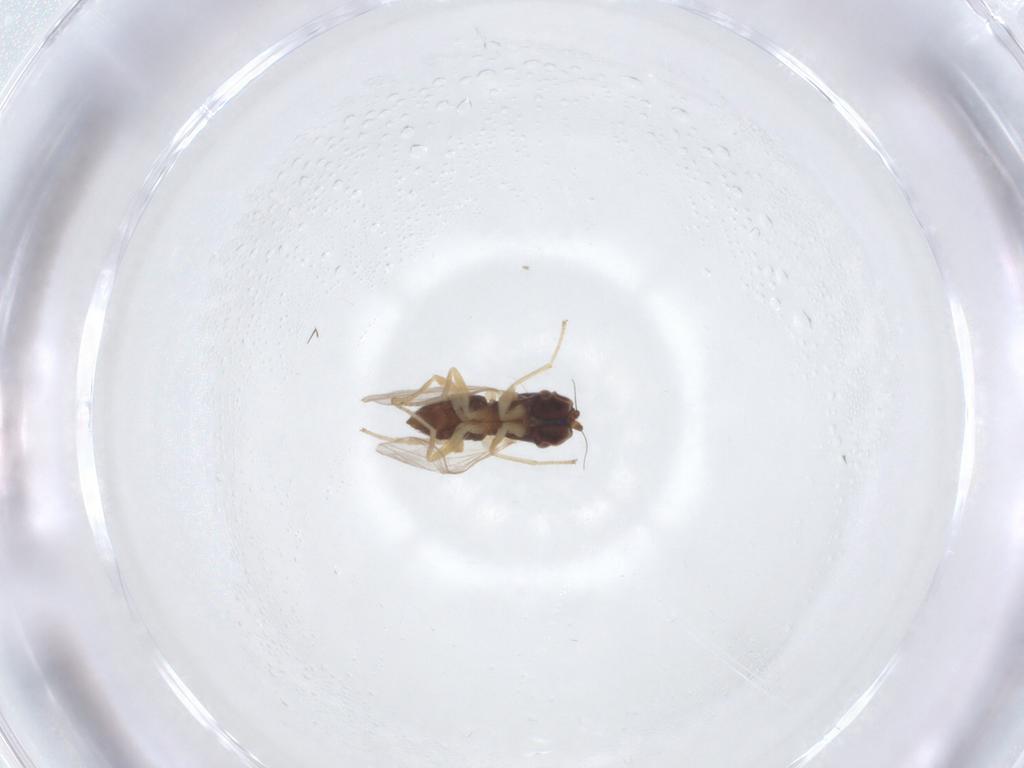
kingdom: Animalia
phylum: Arthropoda
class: Insecta
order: Diptera
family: Dolichopodidae
